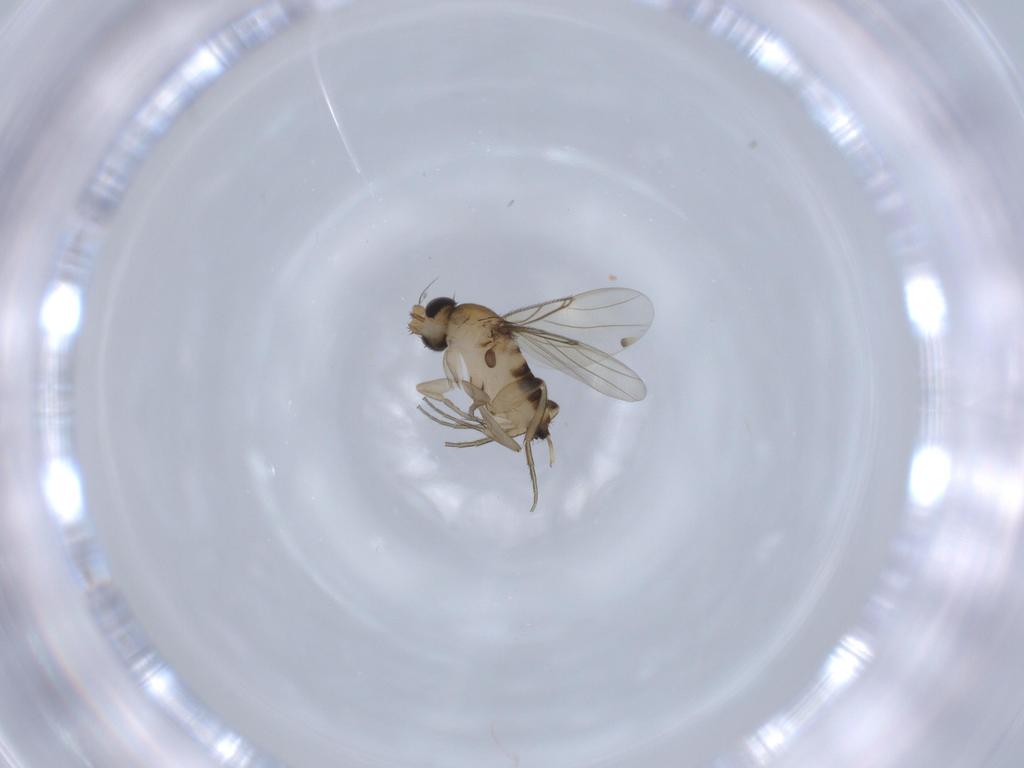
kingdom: Animalia
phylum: Arthropoda
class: Insecta
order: Diptera
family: Phoridae
